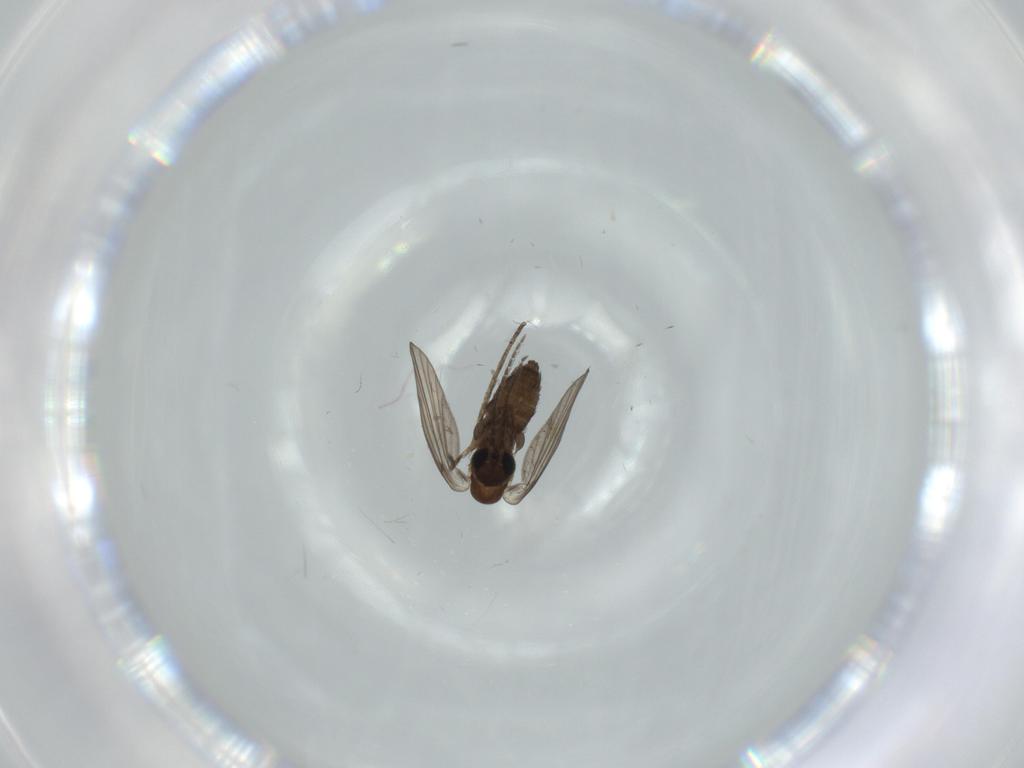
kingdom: Animalia
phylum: Arthropoda
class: Insecta
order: Diptera
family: Psychodidae
